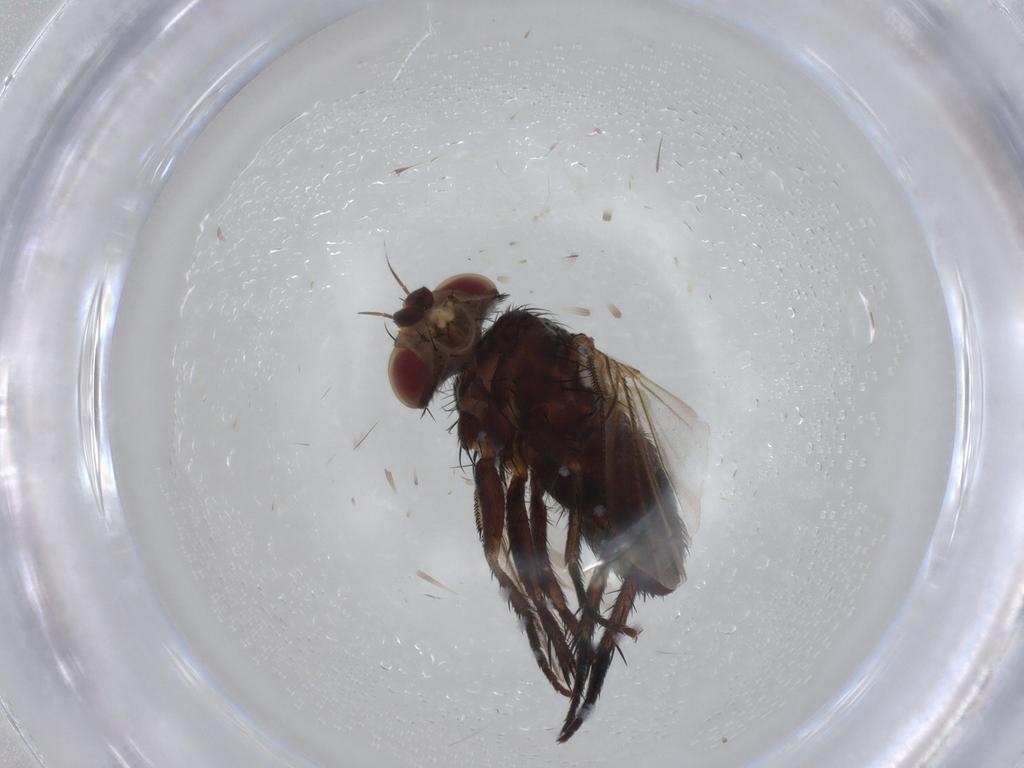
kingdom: Animalia
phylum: Arthropoda
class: Insecta
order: Diptera
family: Tachinidae
